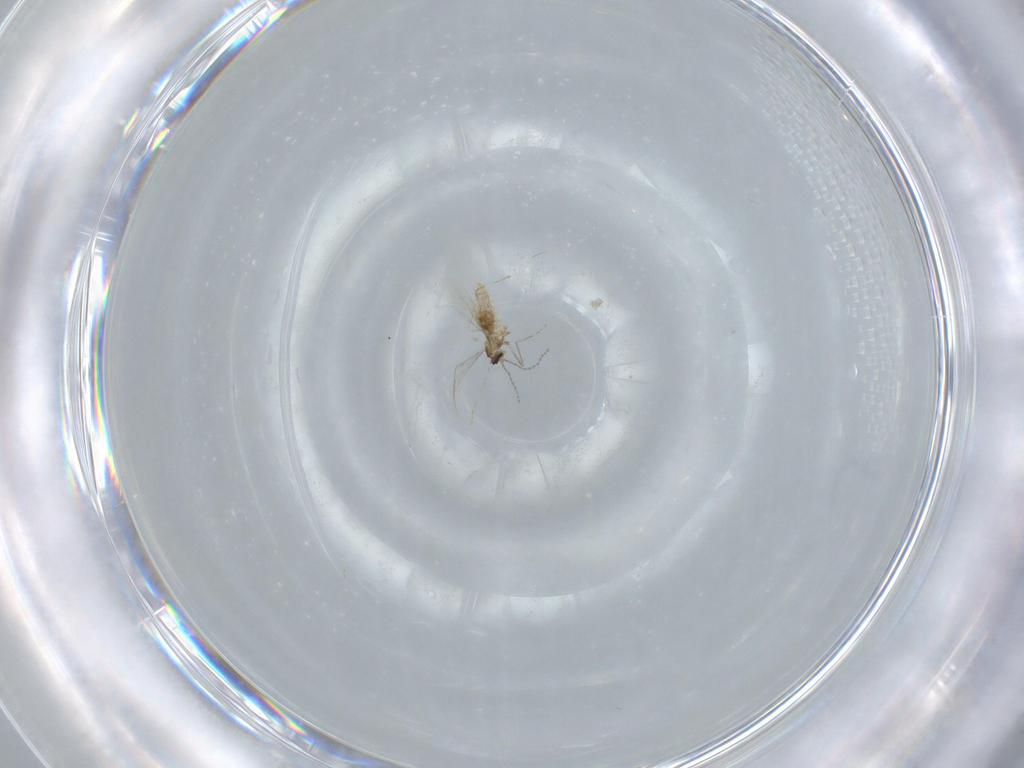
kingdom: Animalia
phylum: Arthropoda
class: Insecta
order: Diptera
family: Cecidomyiidae
